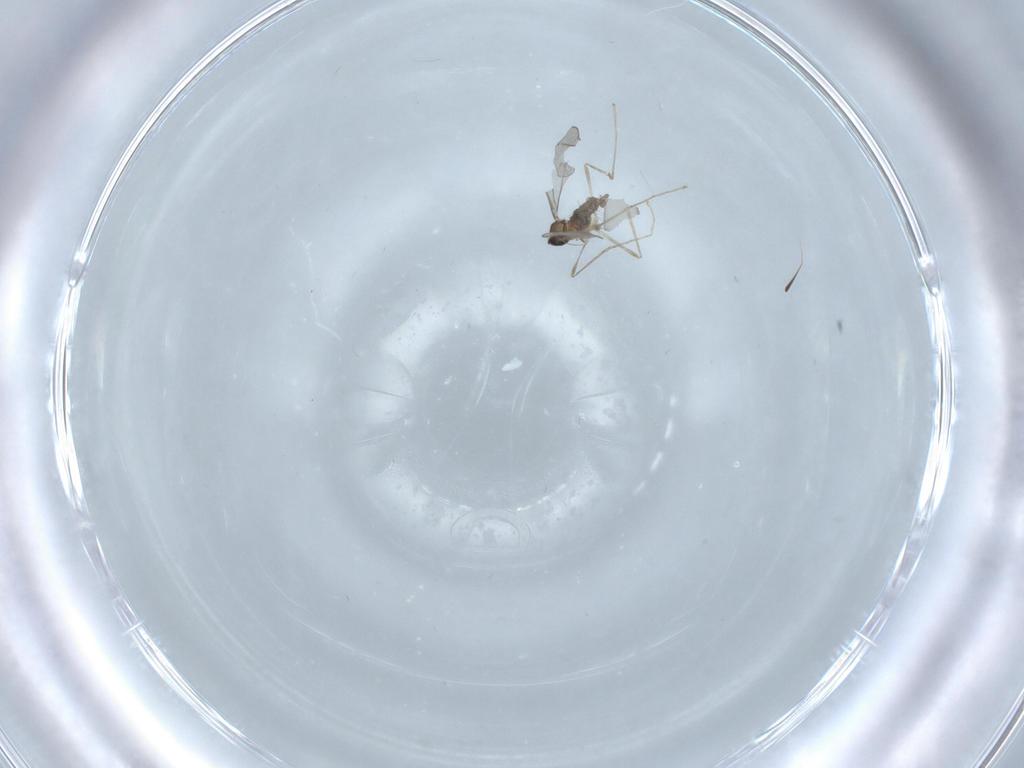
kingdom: Animalia
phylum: Arthropoda
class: Insecta
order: Diptera
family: Cecidomyiidae
